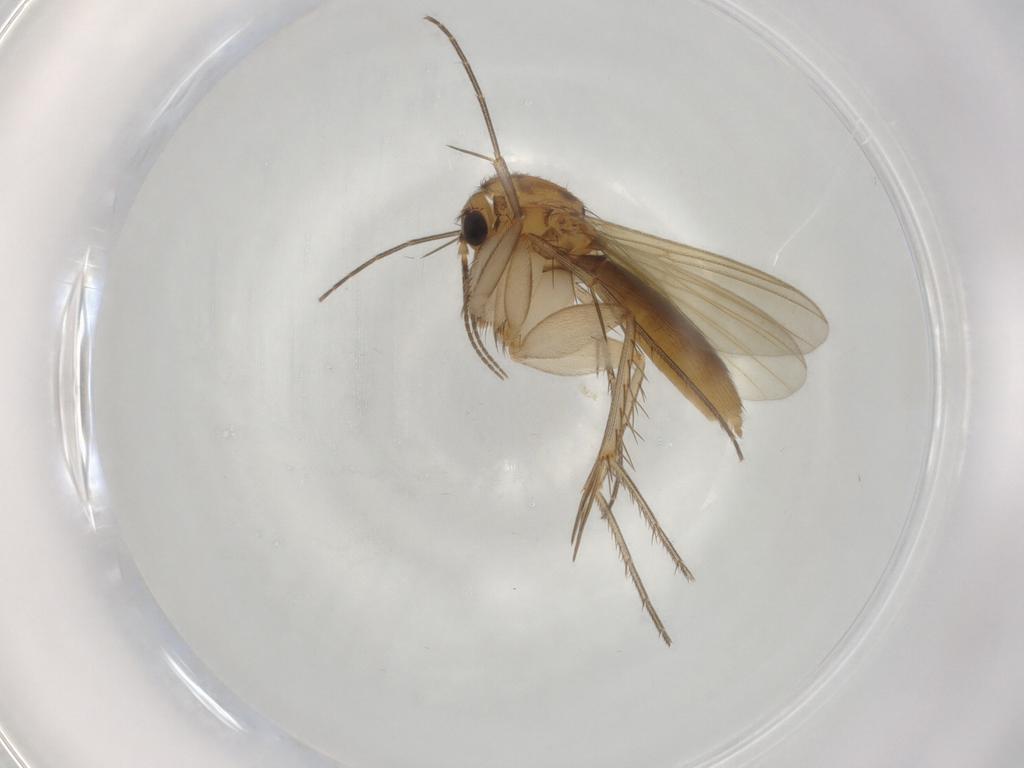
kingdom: Animalia
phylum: Arthropoda
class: Insecta
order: Diptera
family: Mycetophilidae
